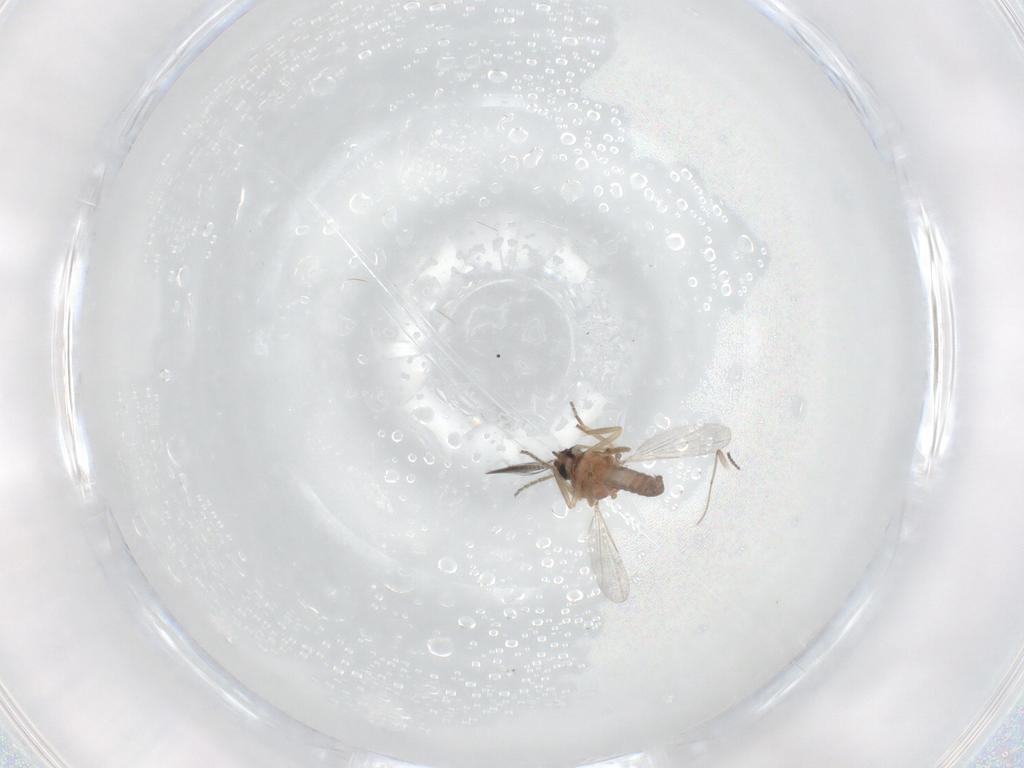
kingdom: Animalia
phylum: Arthropoda
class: Insecta
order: Diptera
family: Ceratopogonidae
